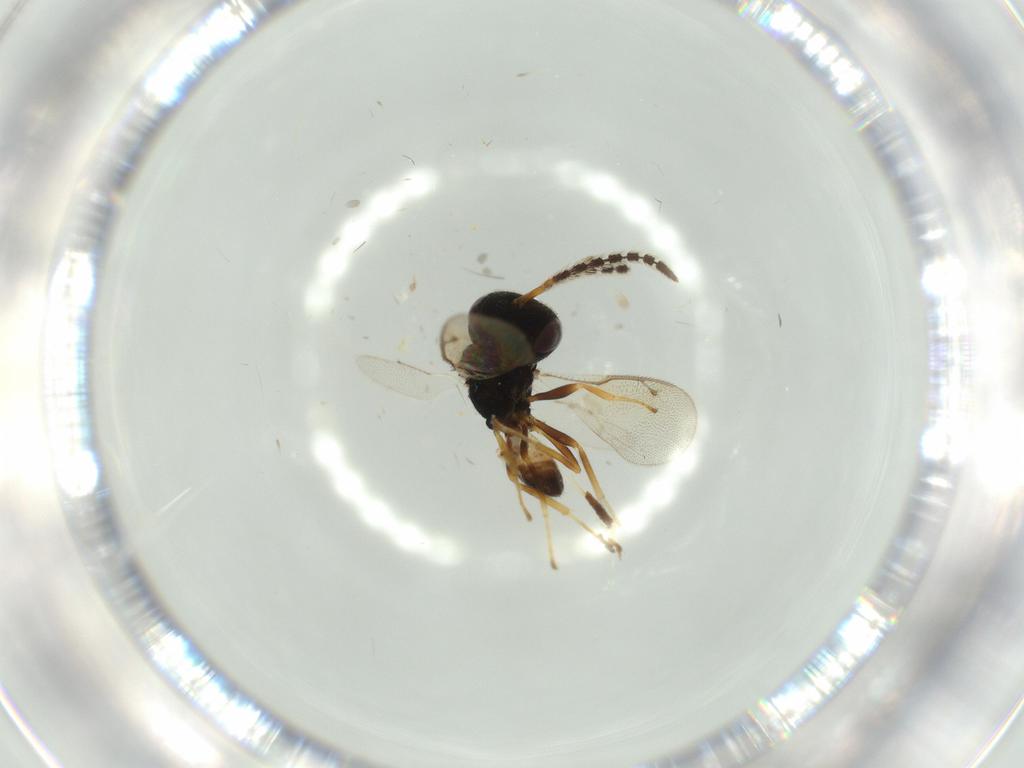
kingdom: Animalia
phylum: Arthropoda
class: Insecta
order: Hymenoptera
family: Pteromalidae
